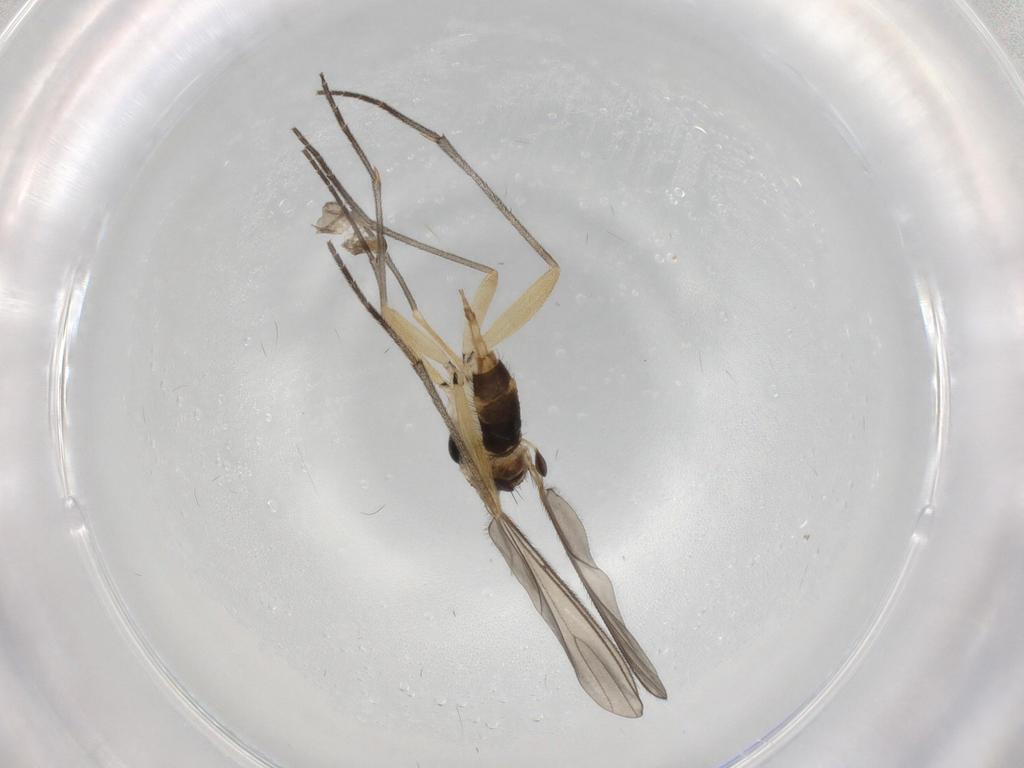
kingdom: Animalia
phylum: Arthropoda
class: Insecta
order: Diptera
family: Sciaridae
